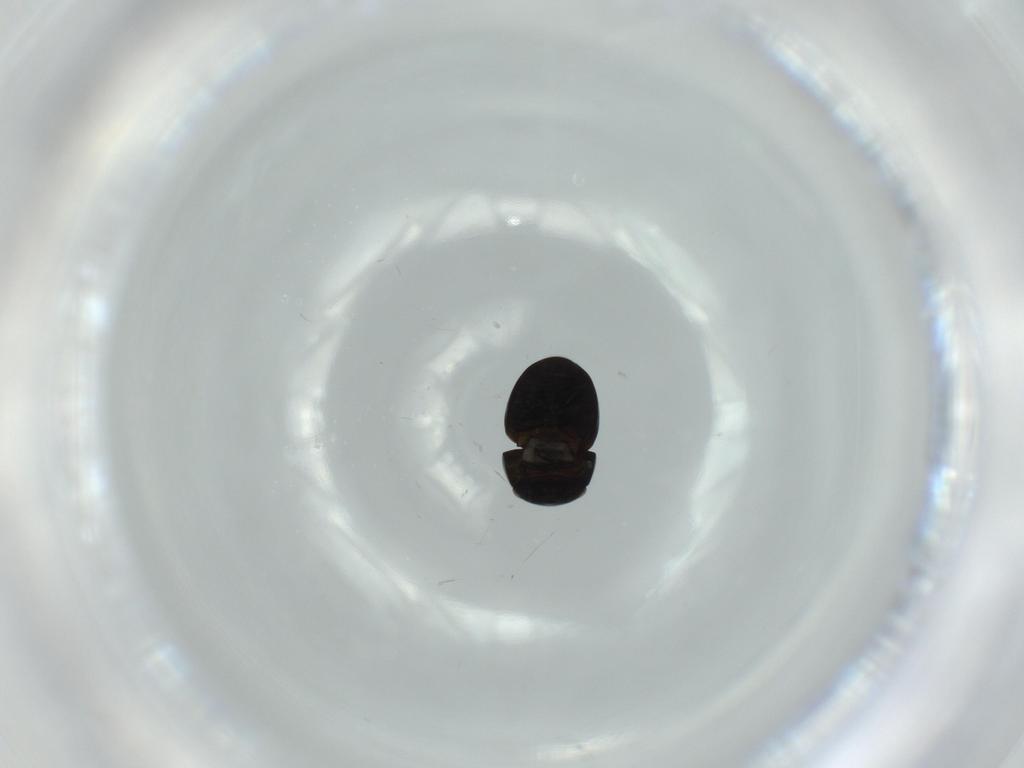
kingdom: Animalia
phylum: Arthropoda
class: Insecta
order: Coleoptera
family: Cybocephalidae
